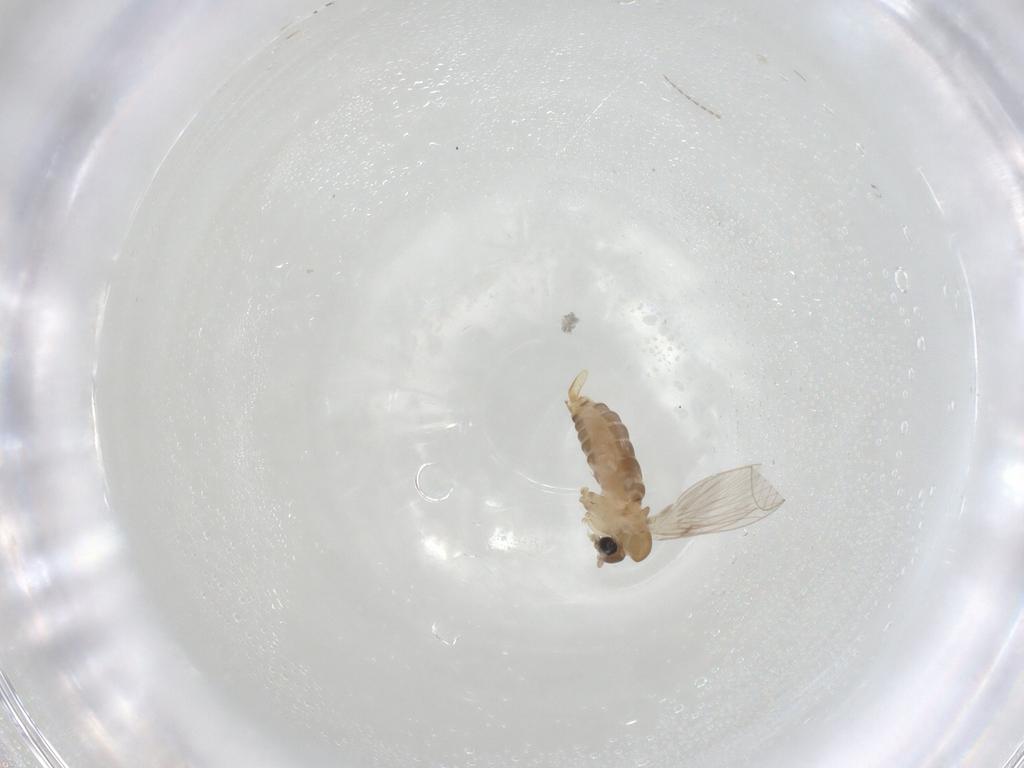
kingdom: Animalia
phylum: Arthropoda
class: Insecta
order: Diptera
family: Cecidomyiidae
